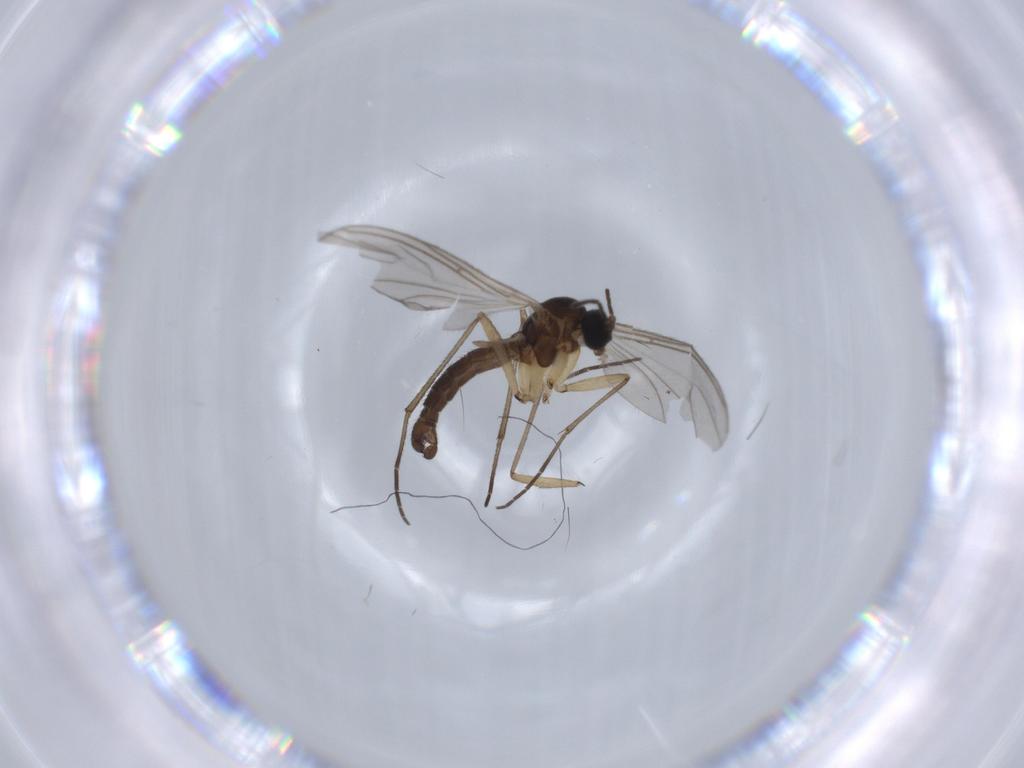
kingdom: Animalia
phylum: Arthropoda
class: Insecta
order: Diptera
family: Sciaridae
